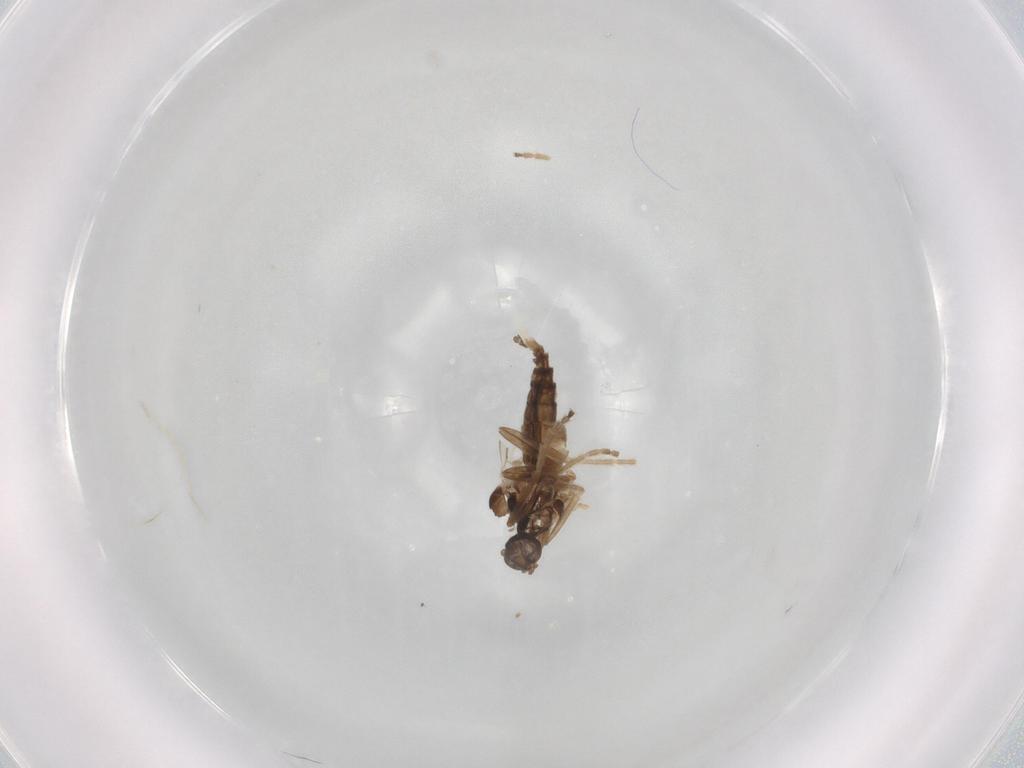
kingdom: Animalia
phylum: Arthropoda
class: Insecta
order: Diptera
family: Cecidomyiidae
